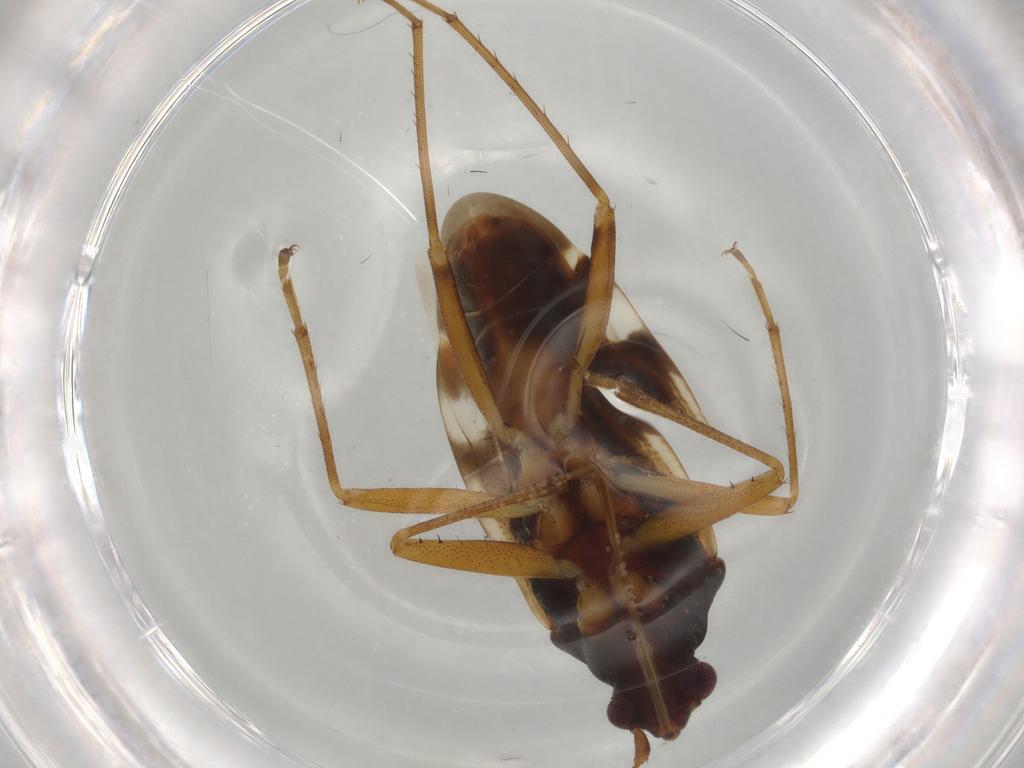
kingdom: Animalia
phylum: Arthropoda
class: Insecta
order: Hemiptera
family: Rhyparochromidae
